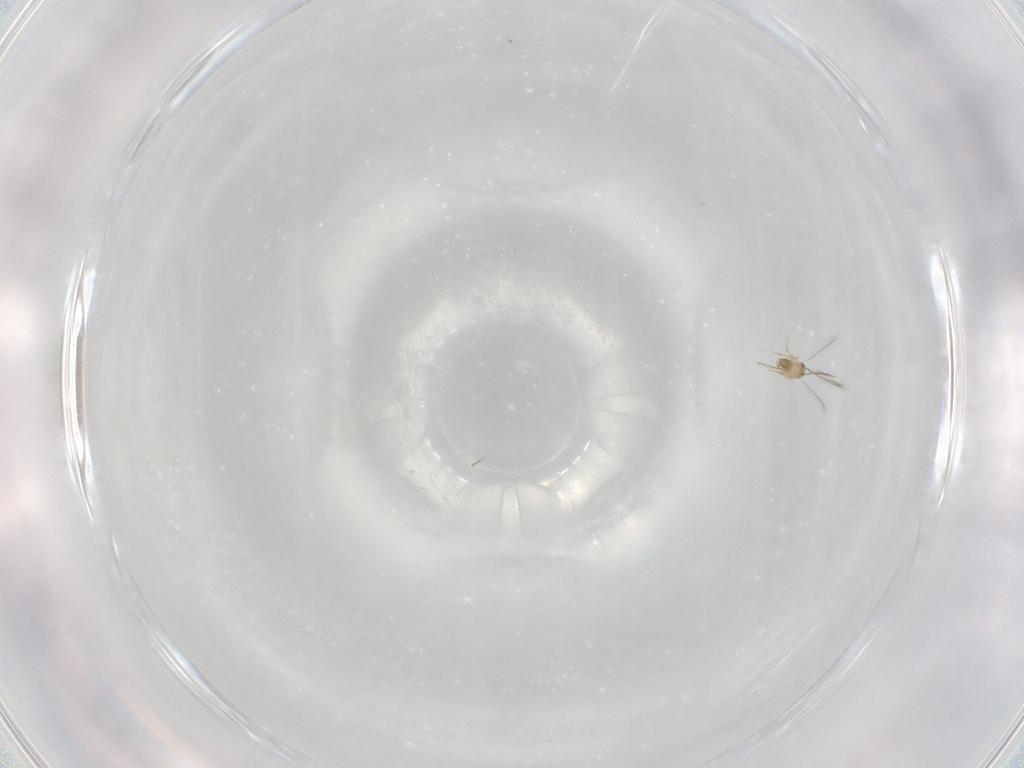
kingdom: Animalia
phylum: Arthropoda
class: Insecta
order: Hymenoptera
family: Mymaridae
